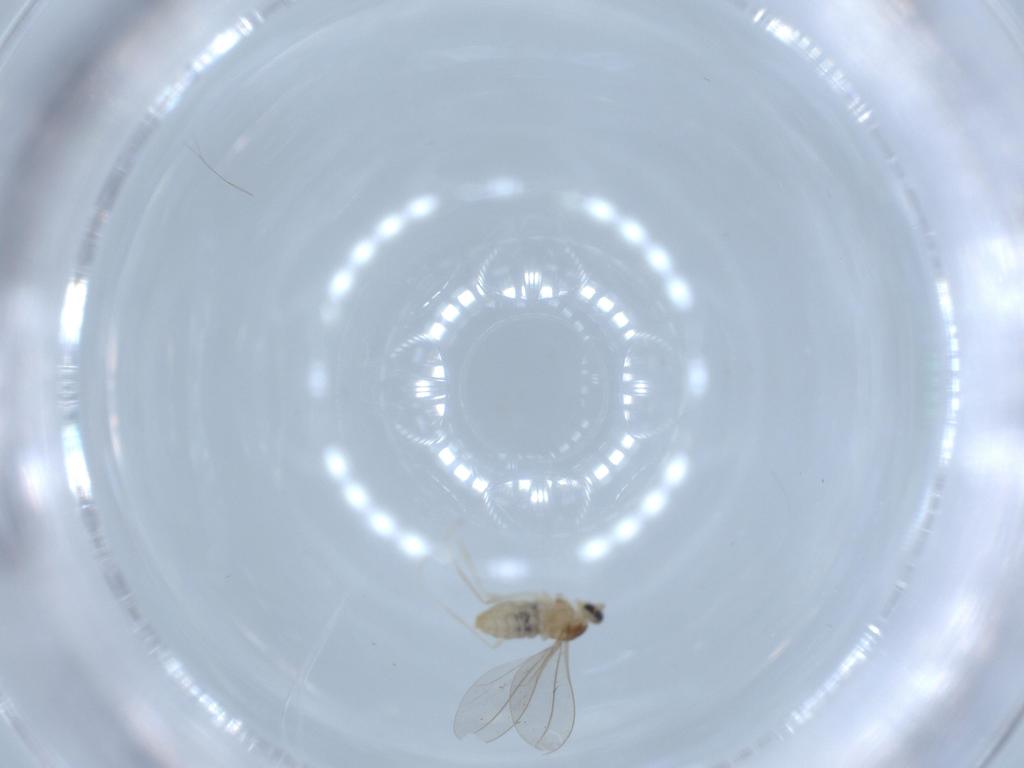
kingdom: Animalia
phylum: Arthropoda
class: Insecta
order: Diptera
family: Cecidomyiidae
